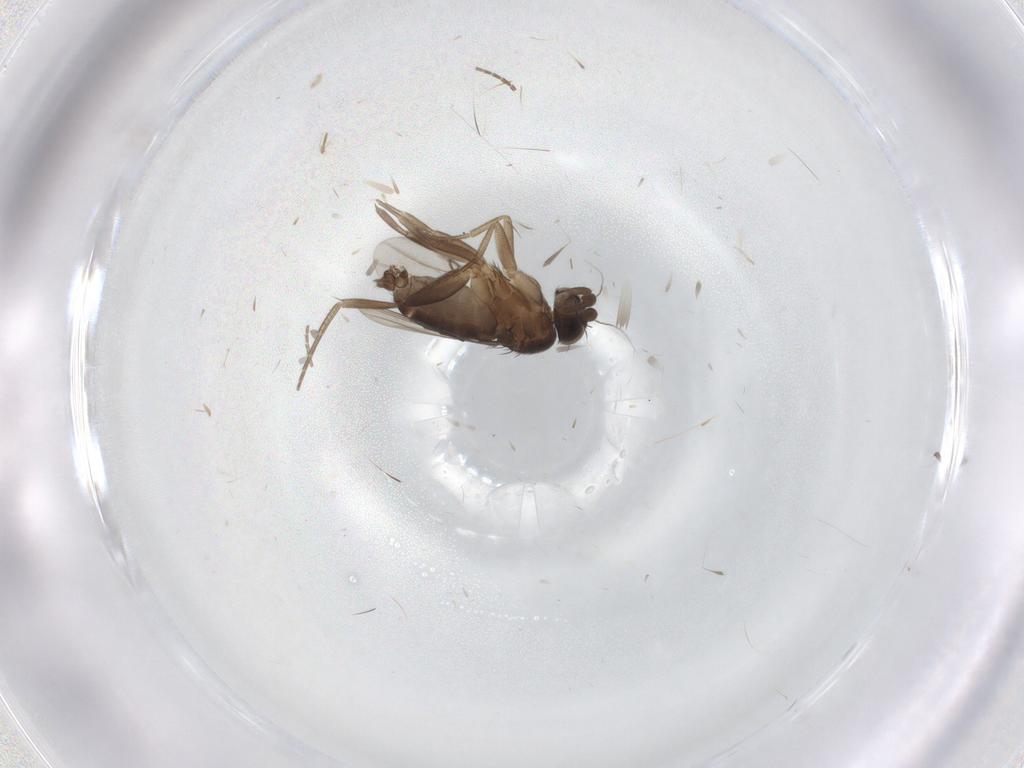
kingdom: Animalia
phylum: Arthropoda
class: Insecta
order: Diptera
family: Phoridae
